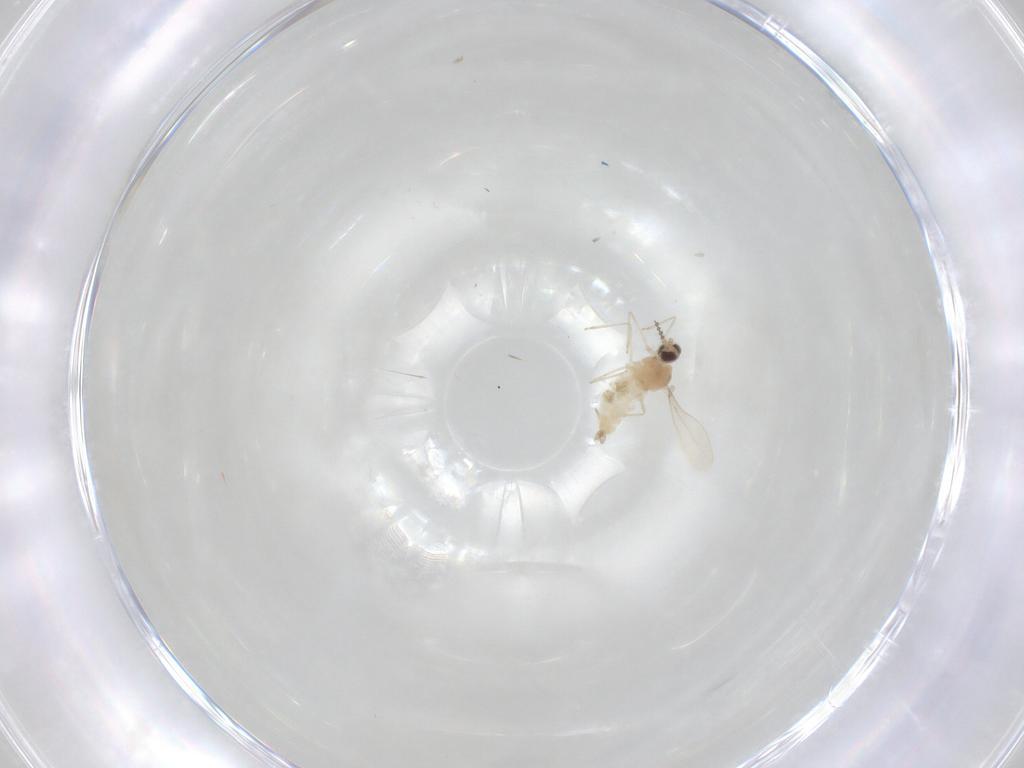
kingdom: Animalia
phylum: Arthropoda
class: Insecta
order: Diptera
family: Cecidomyiidae
